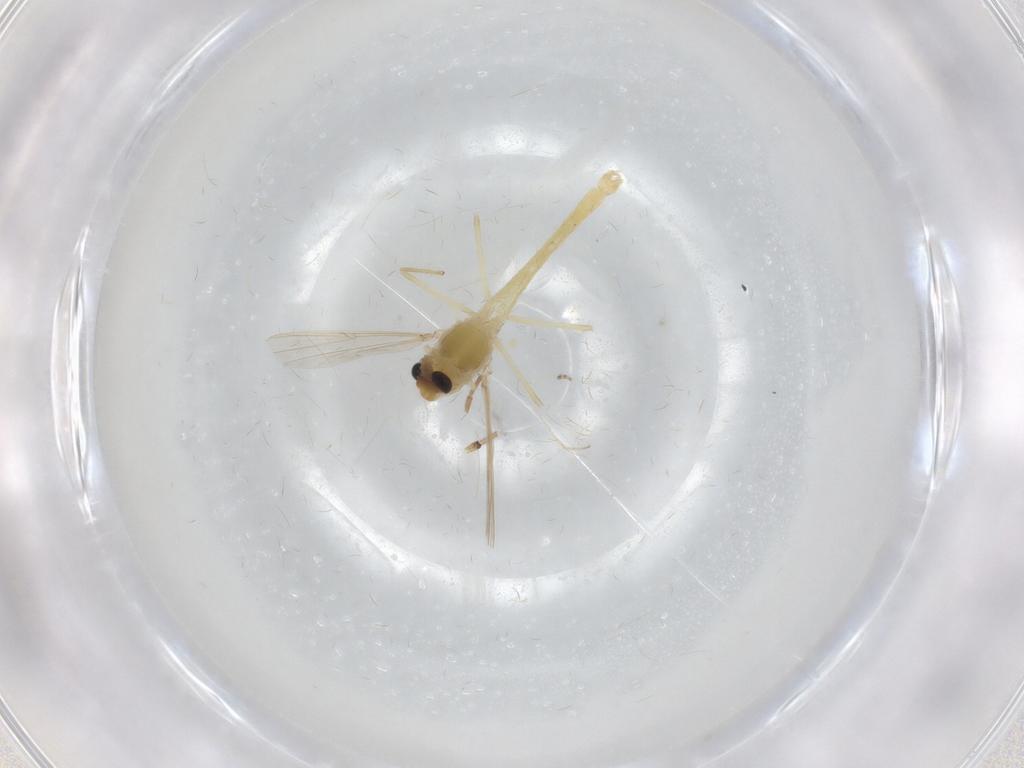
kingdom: Animalia
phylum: Arthropoda
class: Insecta
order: Diptera
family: Chironomidae
